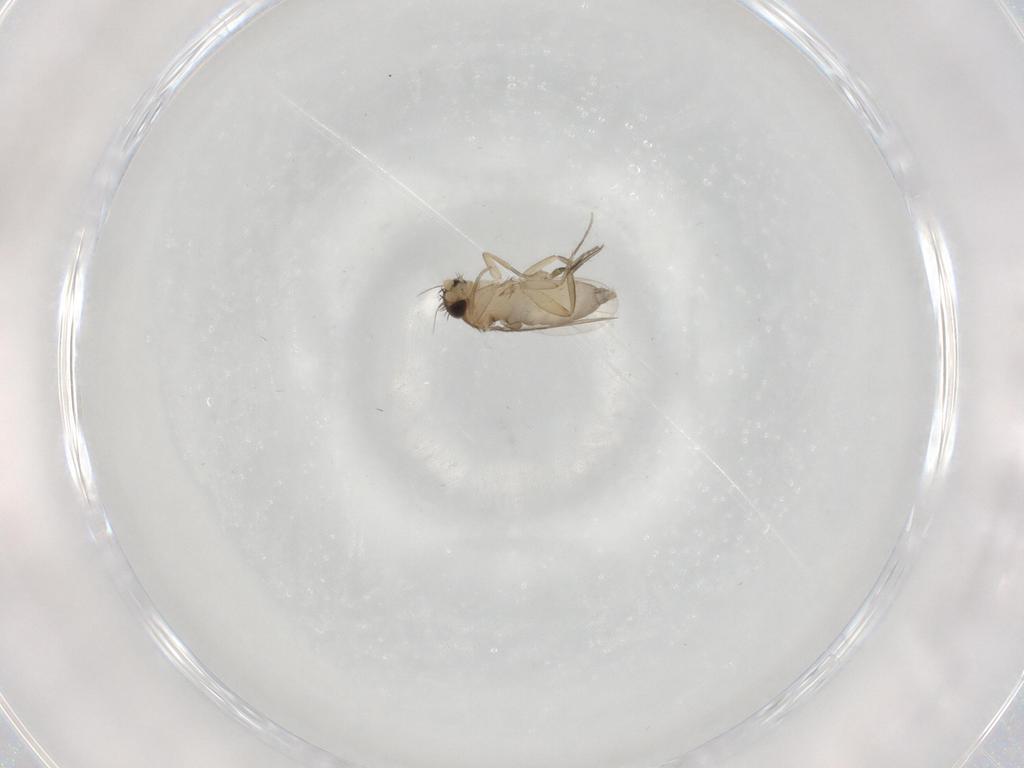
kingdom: Animalia
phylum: Arthropoda
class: Insecta
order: Diptera
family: Phoridae
